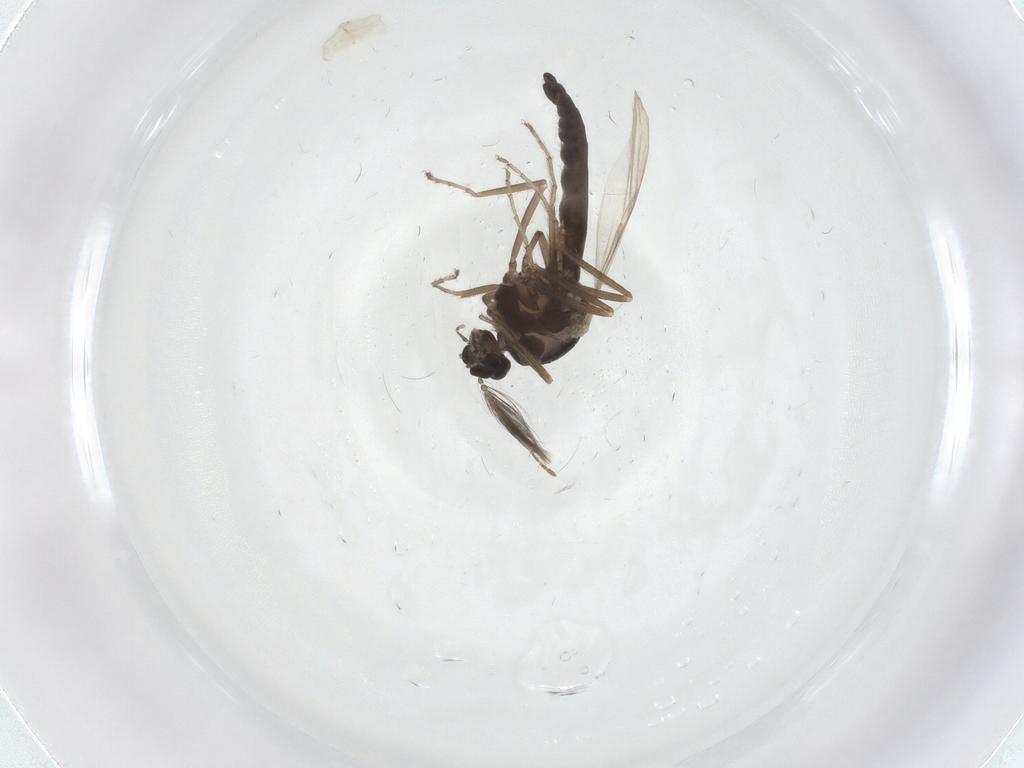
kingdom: Animalia
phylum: Arthropoda
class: Insecta
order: Diptera
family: Ceratopogonidae
